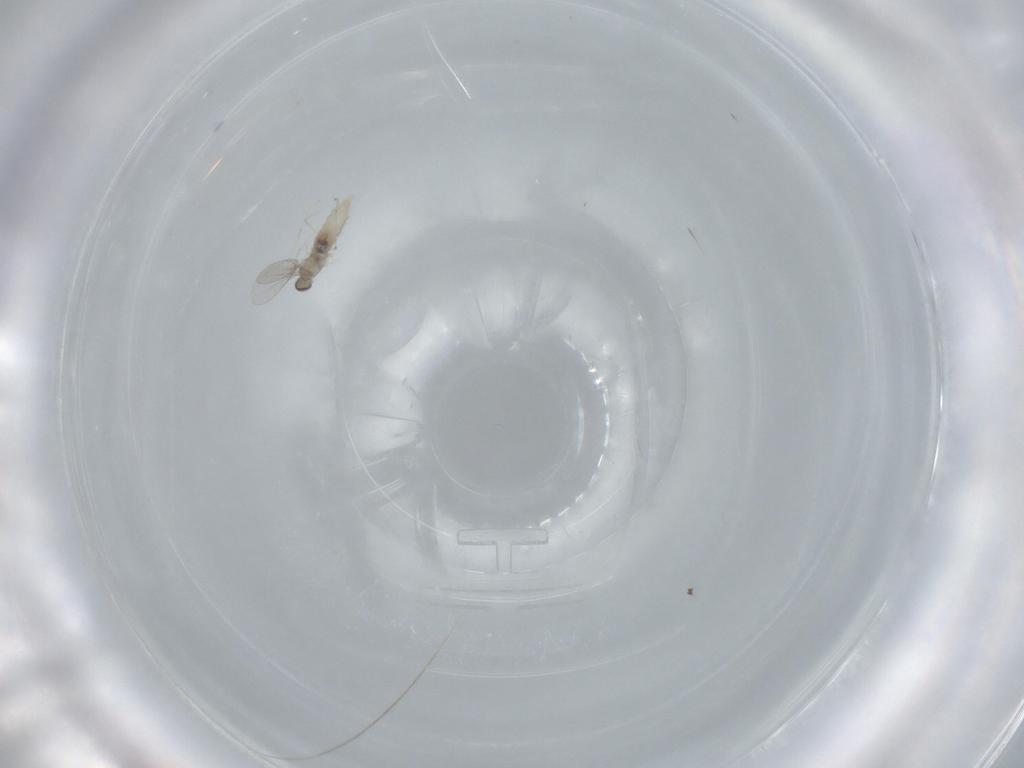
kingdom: Animalia
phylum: Arthropoda
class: Insecta
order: Diptera
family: Cecidomyiidae
